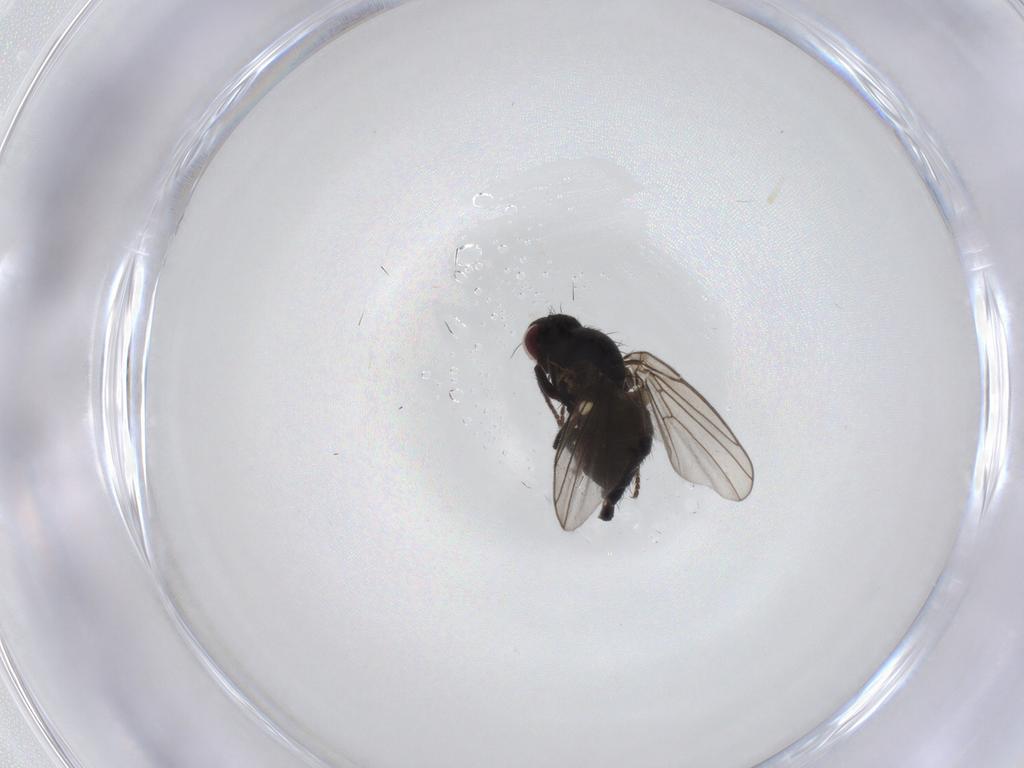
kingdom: Animalia
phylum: Arthropoda
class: Insecta
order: Diptera
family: Agromyzidae
